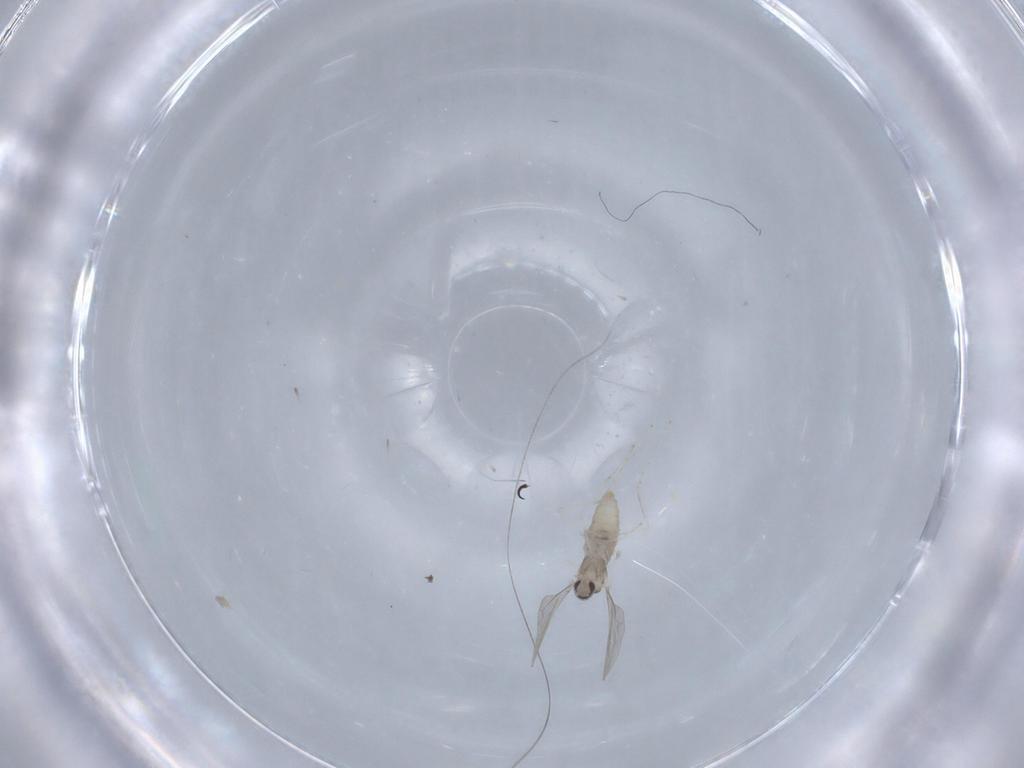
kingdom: Animalia
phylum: Arthropoda
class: Insecta
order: Diptera
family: Cecidomyiidae
